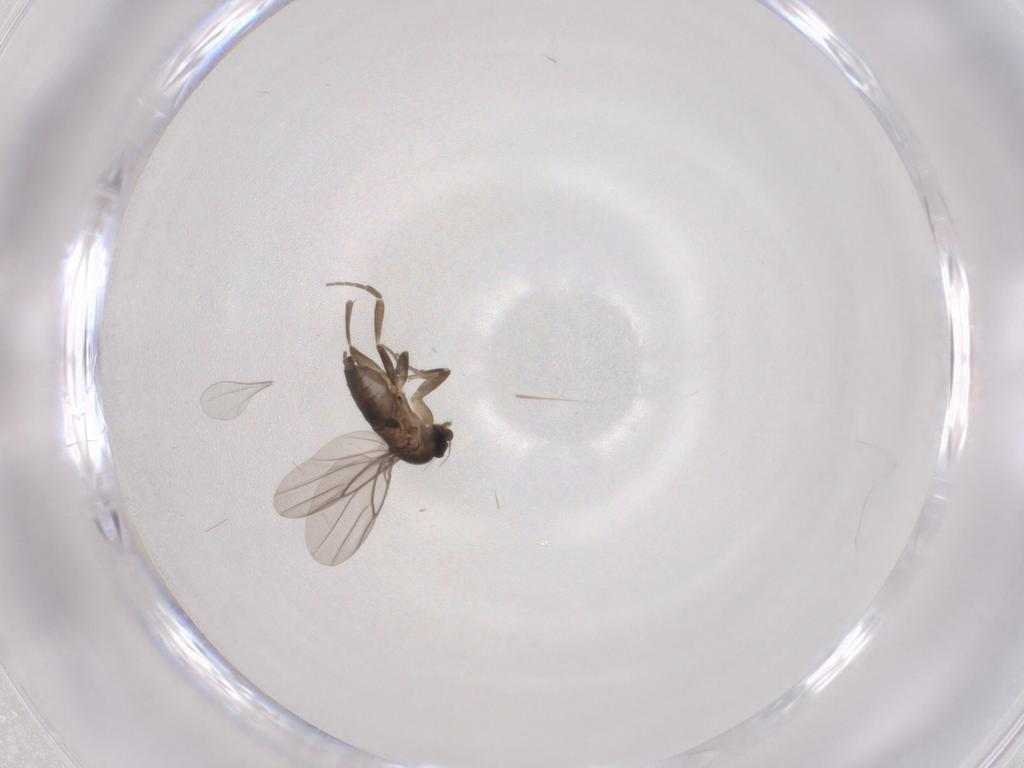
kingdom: Animalia
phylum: Arthropoda
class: Insecta
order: Diptera
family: Phoridae
